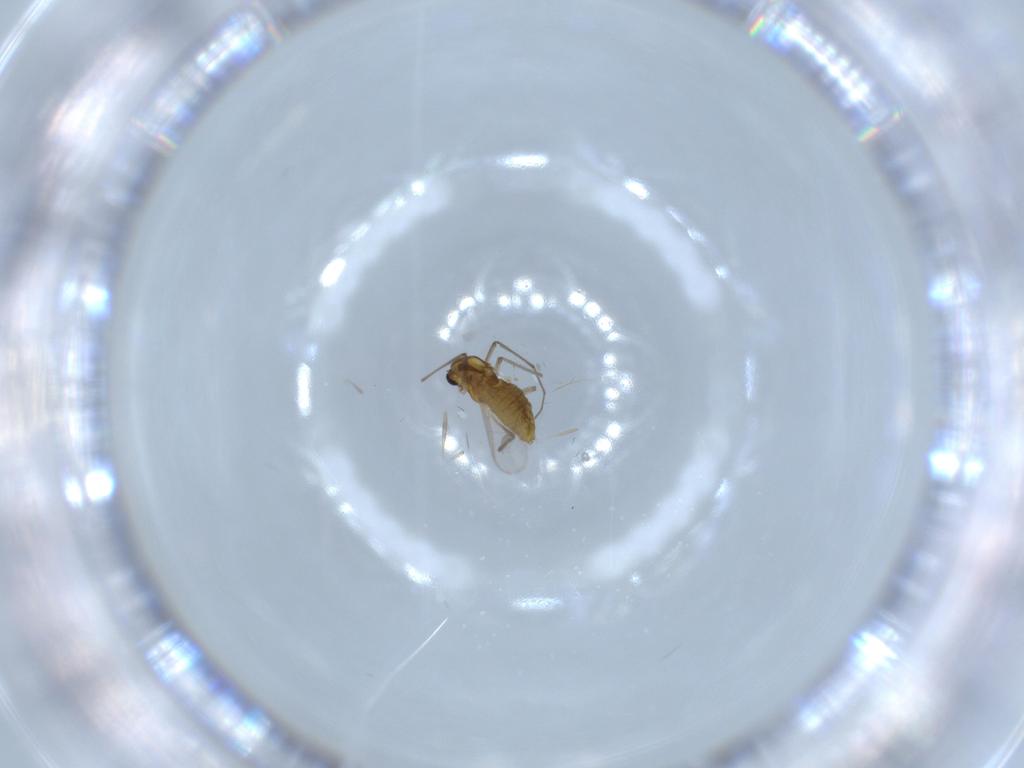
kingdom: Animalia
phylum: Arthropoda
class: Insecta
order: Diptera
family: Chironomidae
